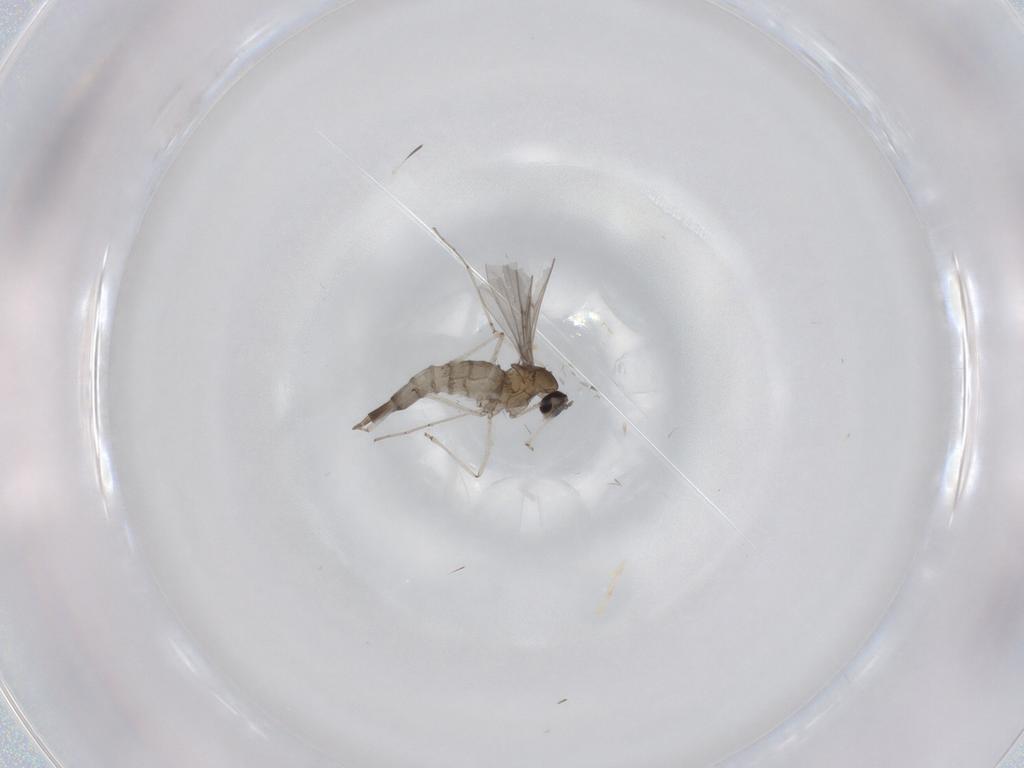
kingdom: Animalia
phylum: Arthropoda
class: Insecta
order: Diptera
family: Cecidomyiidae
